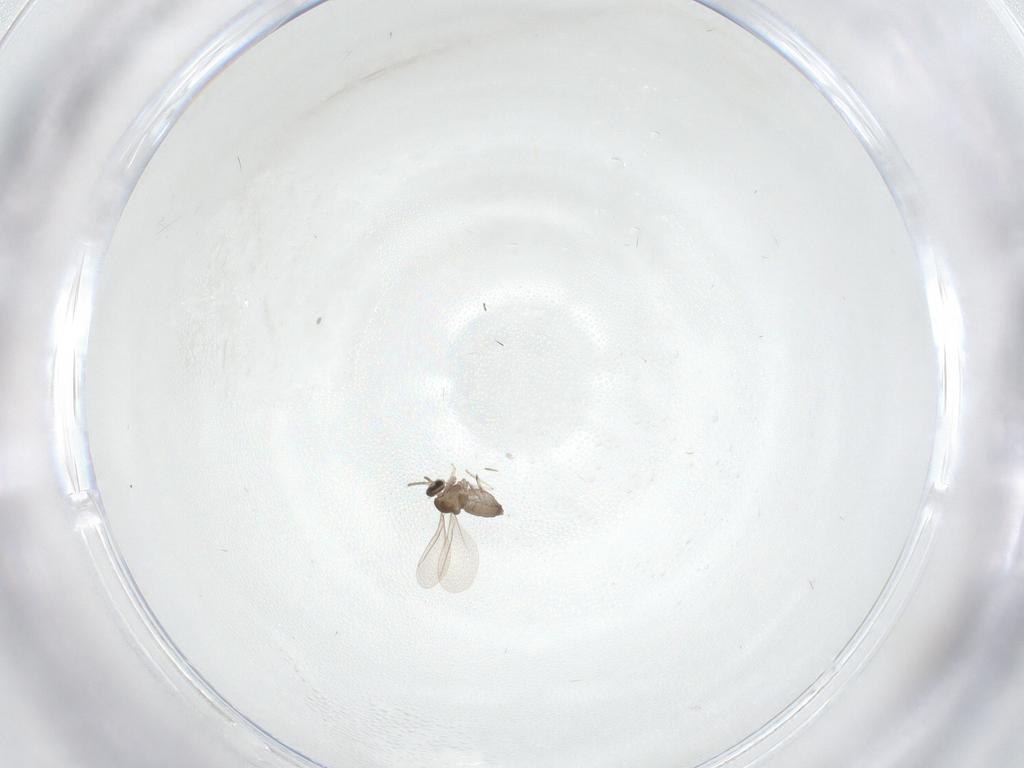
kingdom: Animalia
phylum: Arthropoda
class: Insecta
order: Diptera
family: Cecidomyiidae
